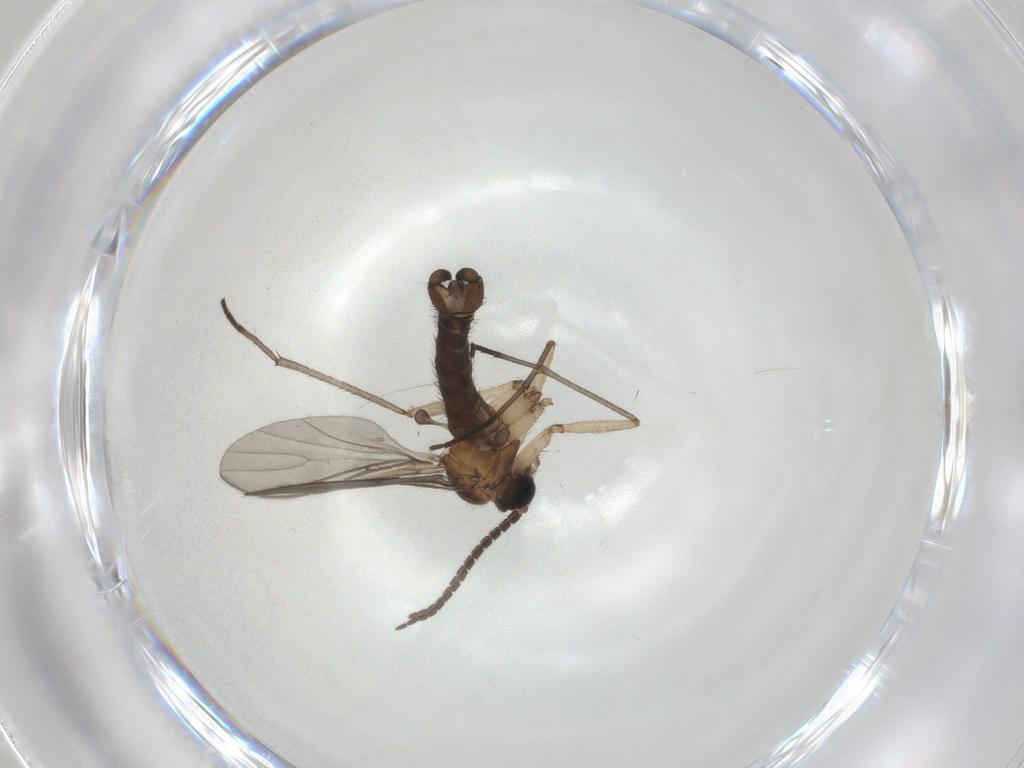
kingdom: Animalia
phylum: Arthropoda
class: Insecta
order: Diptera
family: Sciaridae
